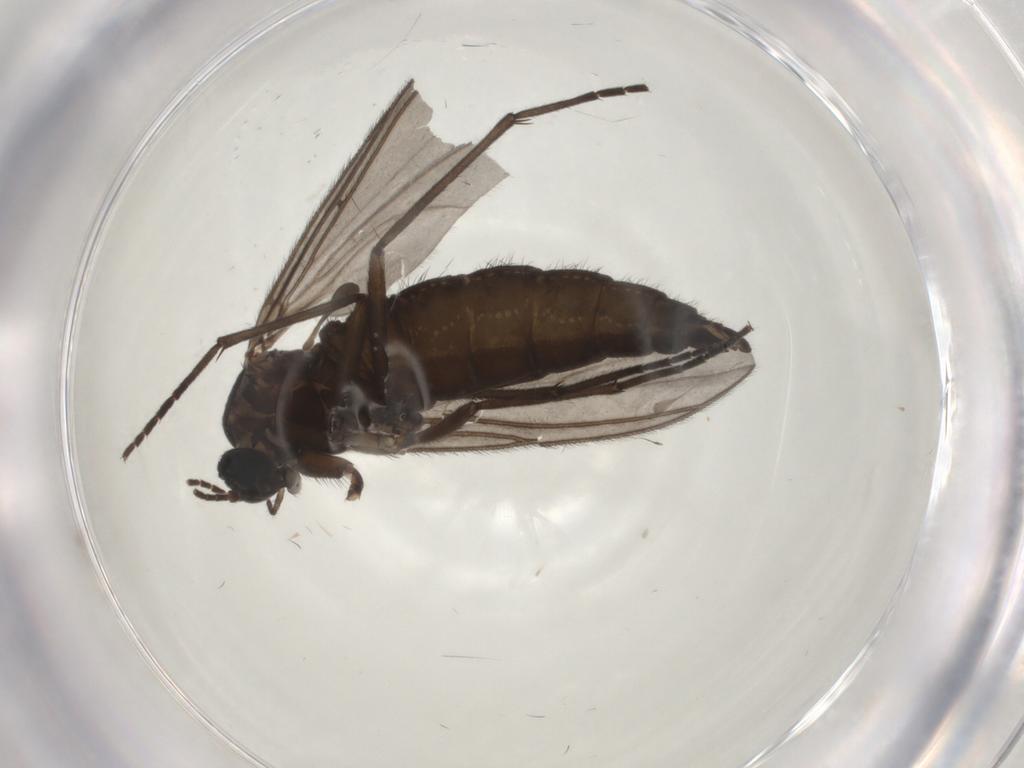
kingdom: Animalia
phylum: Arthropoda
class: Insecta
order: Diptera
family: Sciaridae
